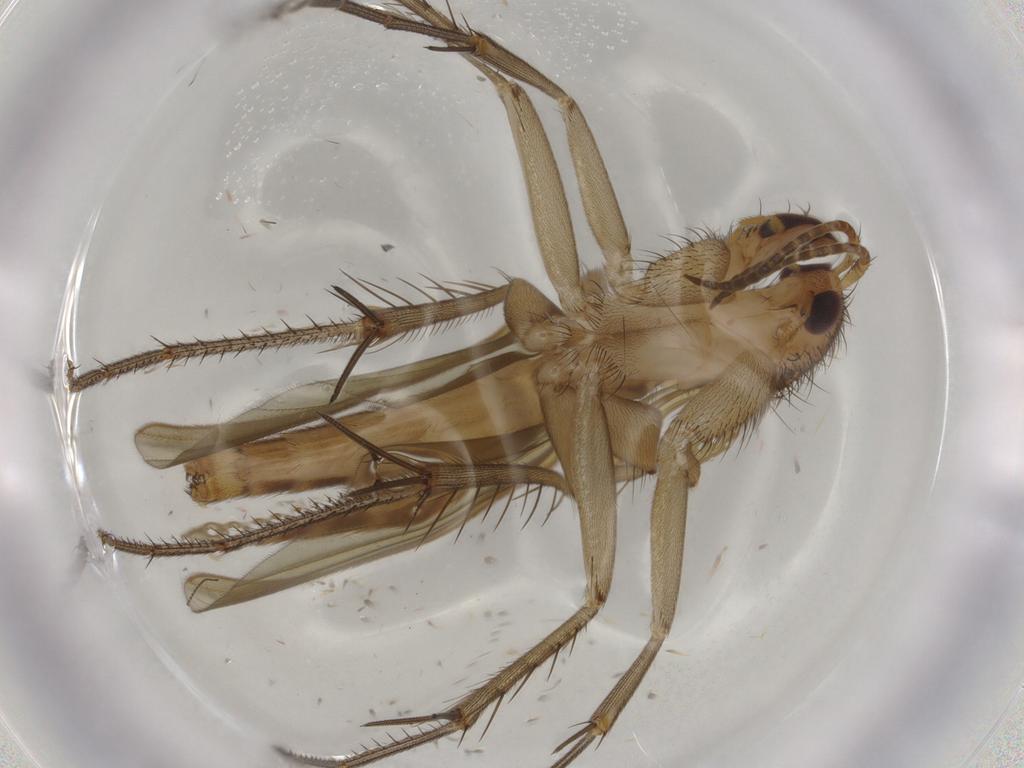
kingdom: Animalia
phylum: Arthropoda
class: Insecta
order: Diptera
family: Mycetophilidae
